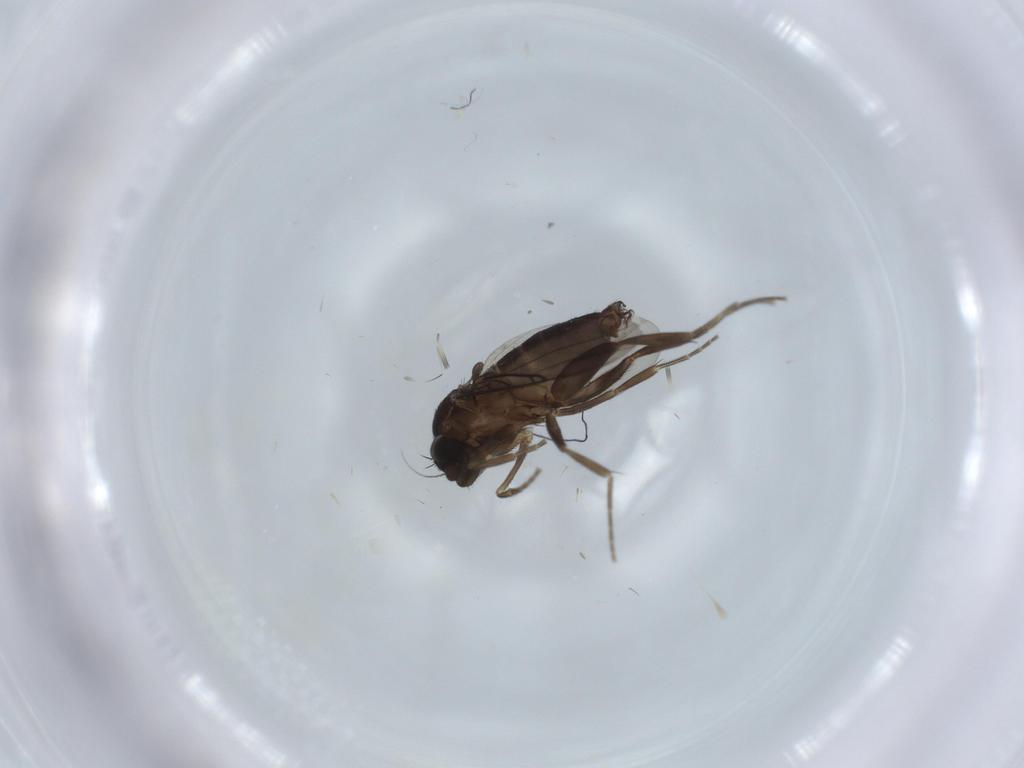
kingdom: Animalia
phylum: Arthropoda
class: Insecta
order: Diptera
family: Phoridae
